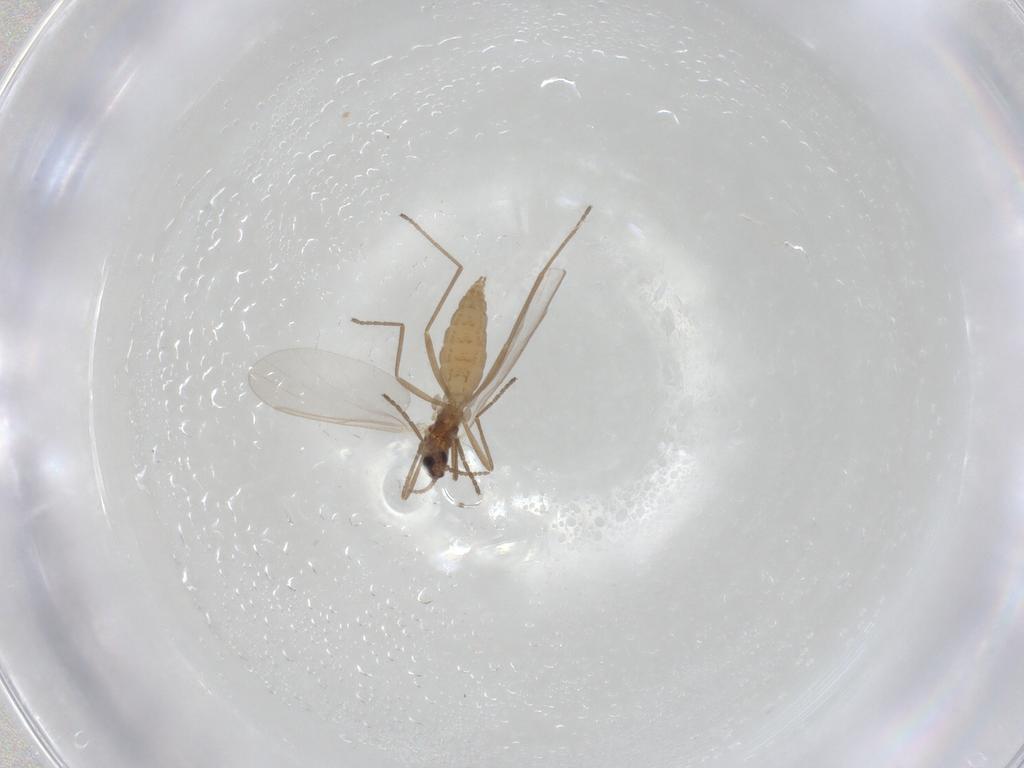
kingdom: Animalia
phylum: Arthropoda
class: Insecta
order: Diptera
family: Cecidomyiidae
